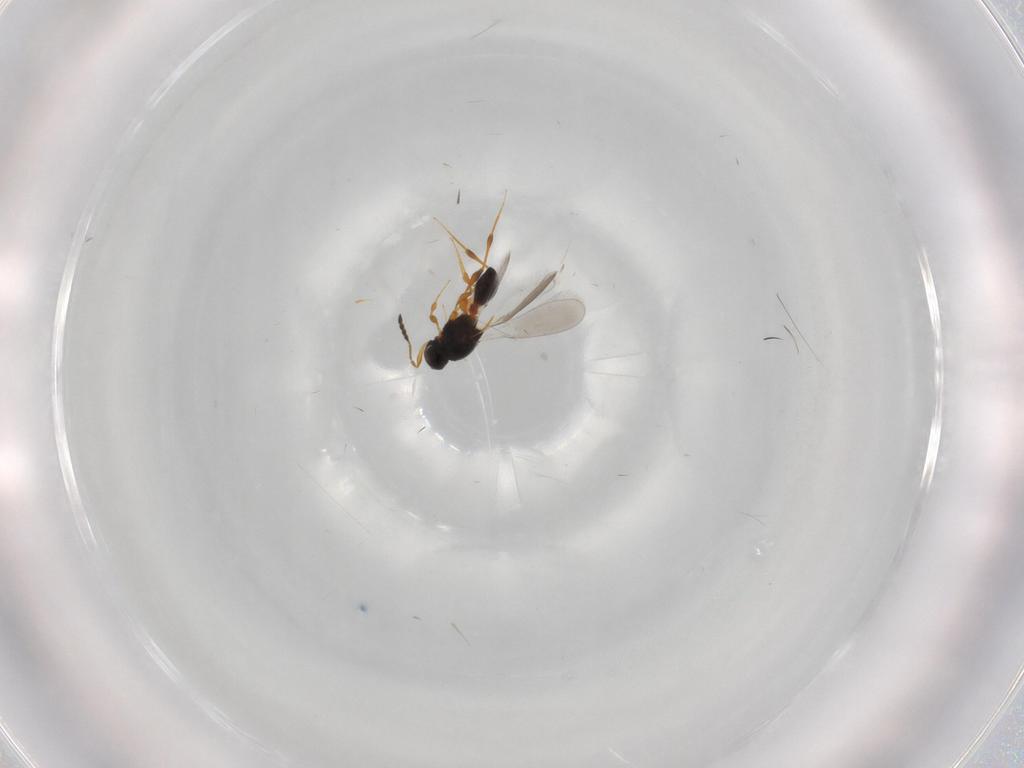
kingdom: Animalia
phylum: Arthropoda
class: Insecta
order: Hymenoptera
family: Platygastridae
